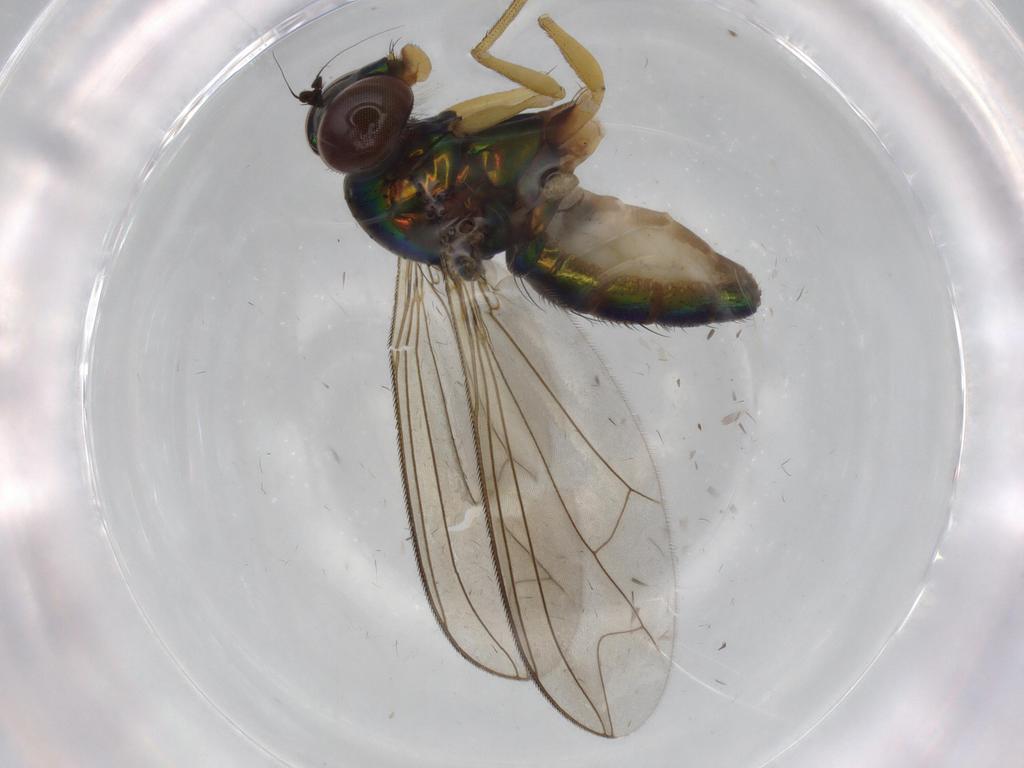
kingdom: Animalia
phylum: Arthropoda
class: Insecta
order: Diptera
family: Dolichopodidae
